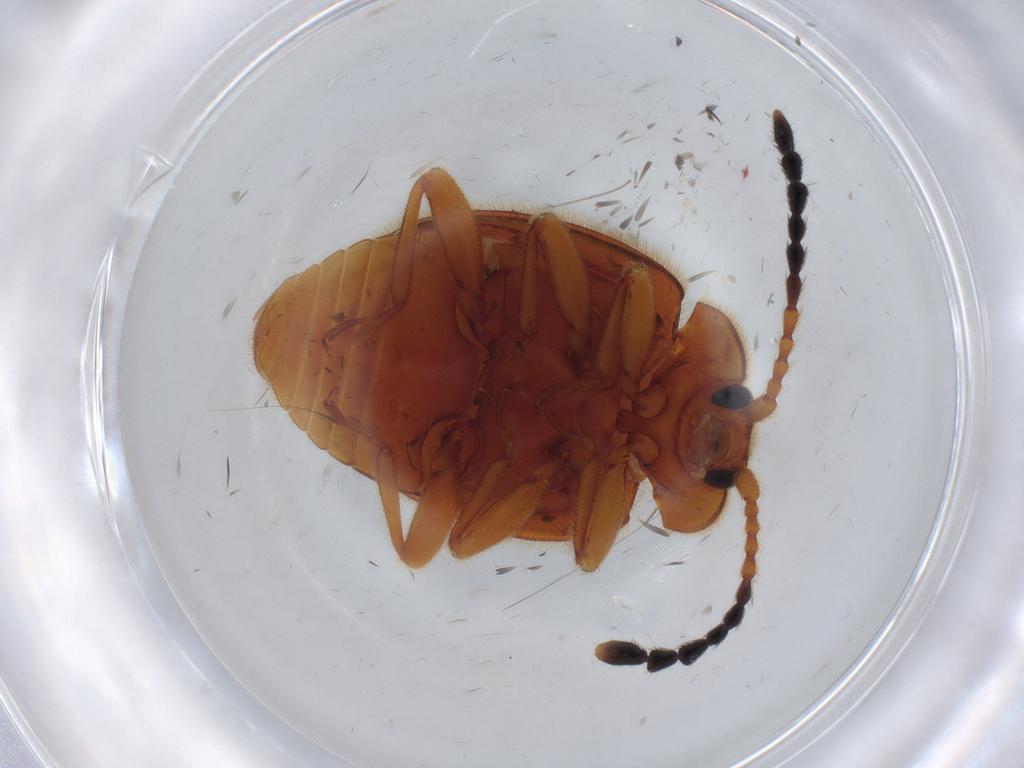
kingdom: Animalia
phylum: Arthropoda
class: Insecta
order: Coleoptera
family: Endomychidae
